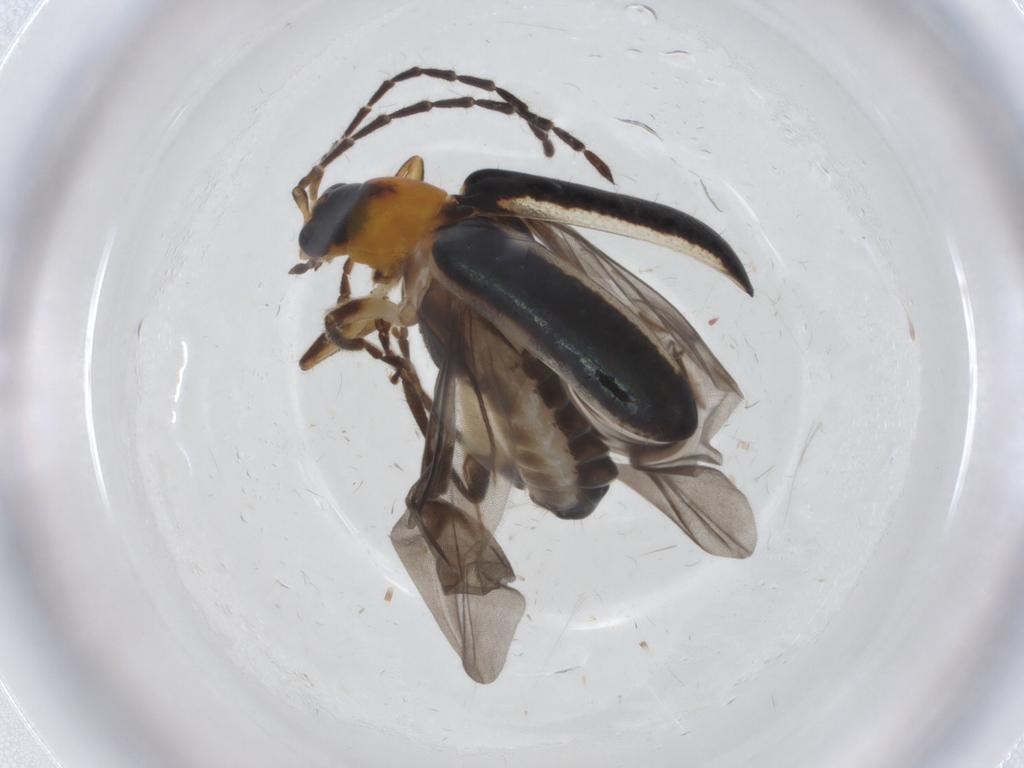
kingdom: Animalia
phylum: Arthropoda
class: Insecta
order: Coleoptera
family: Chrysomelidae
